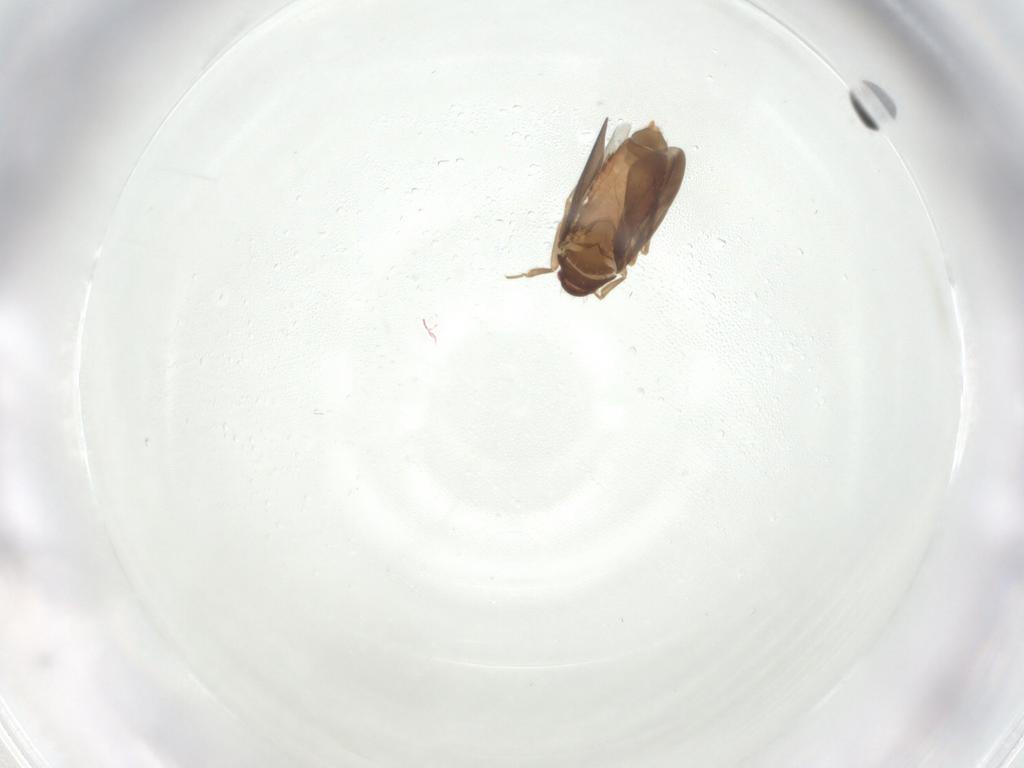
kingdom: Animalia
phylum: Arthropoda
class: Insecta
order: Hemiptera
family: Ceratocombidae
